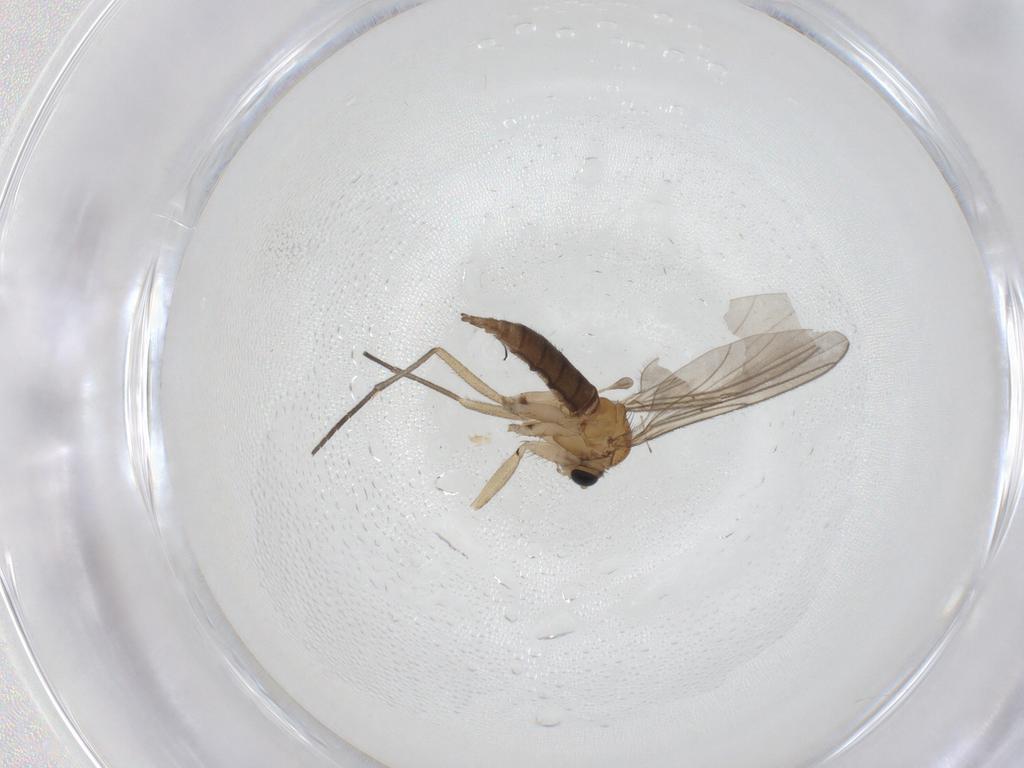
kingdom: Animalia
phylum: Arthropoda
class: Insecta
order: Diptera
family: Sciaridae
